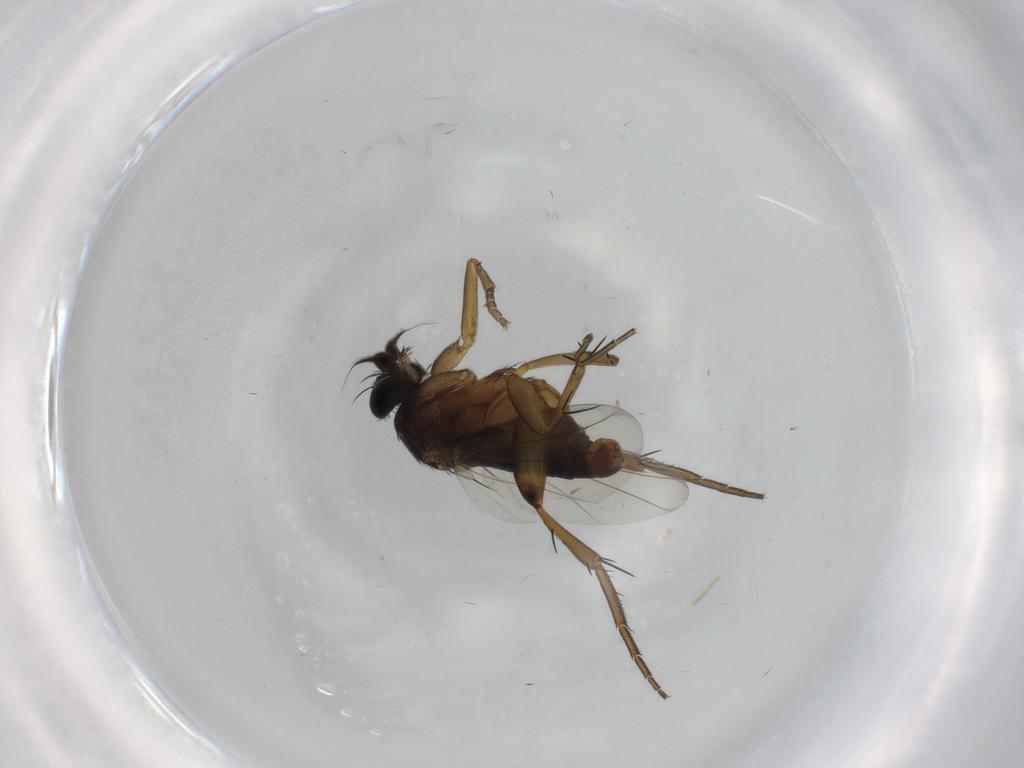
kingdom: Animalia
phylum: Arthropoda
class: Insecta
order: Diptera
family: Phoridae
